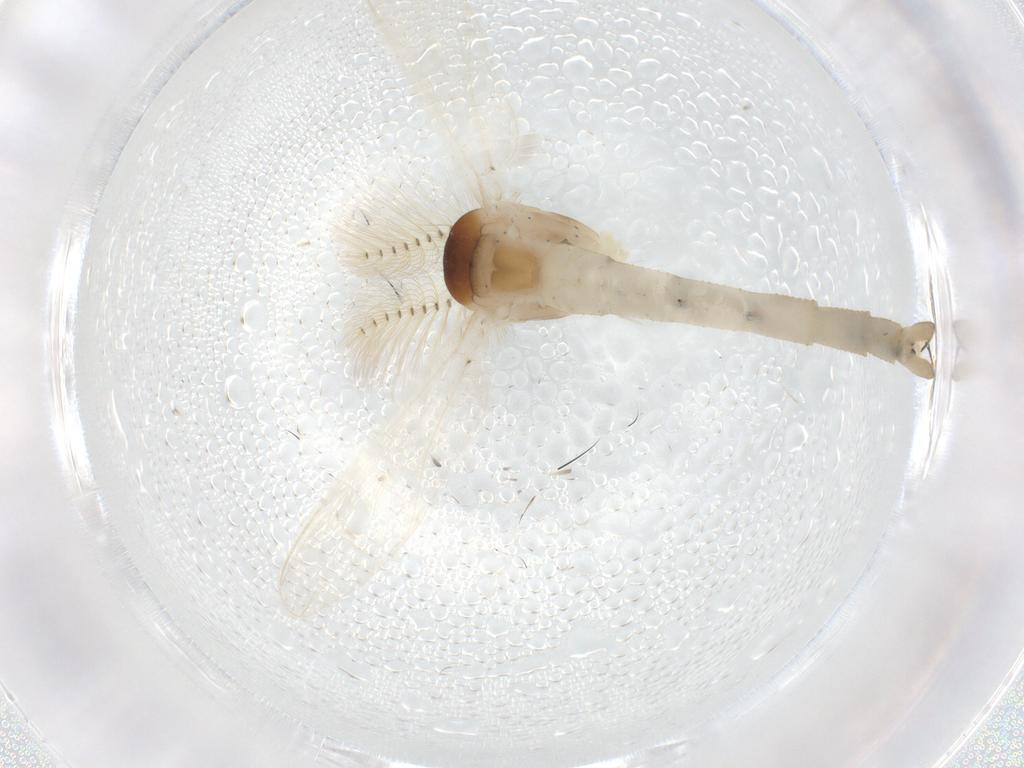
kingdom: Animalia
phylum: Arthropoda
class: Insecta
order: Diptera
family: Chaoboridae
